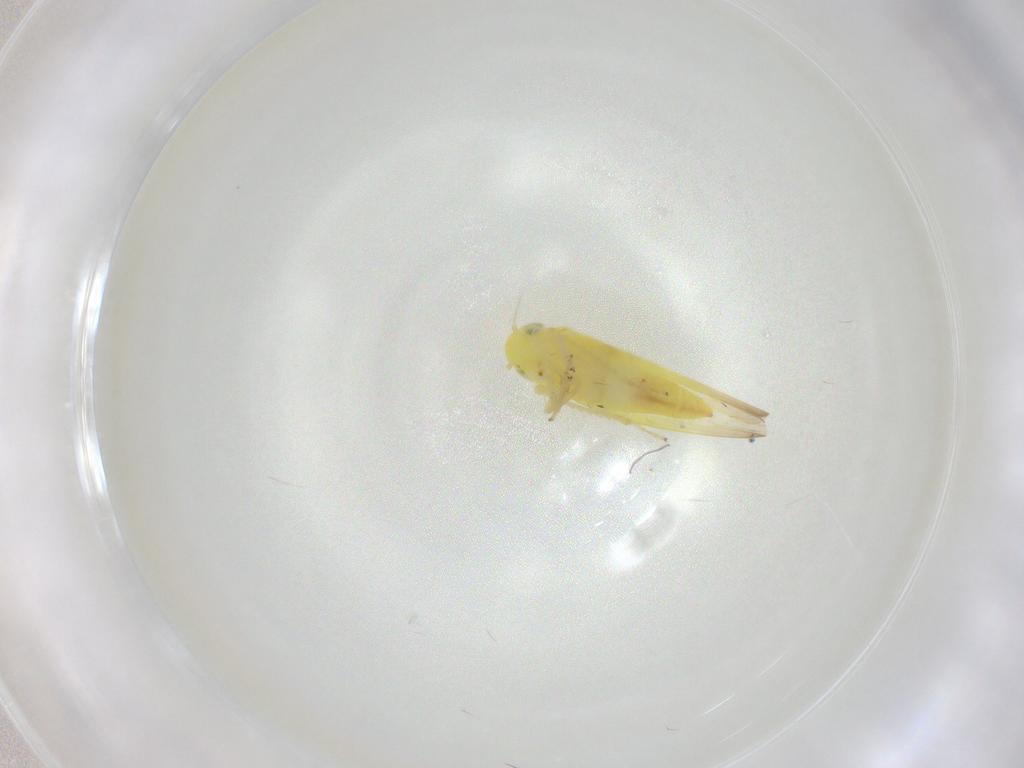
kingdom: Animalia
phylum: Arthropoda
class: Insecta
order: Hemiptera
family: Cicadellidae
